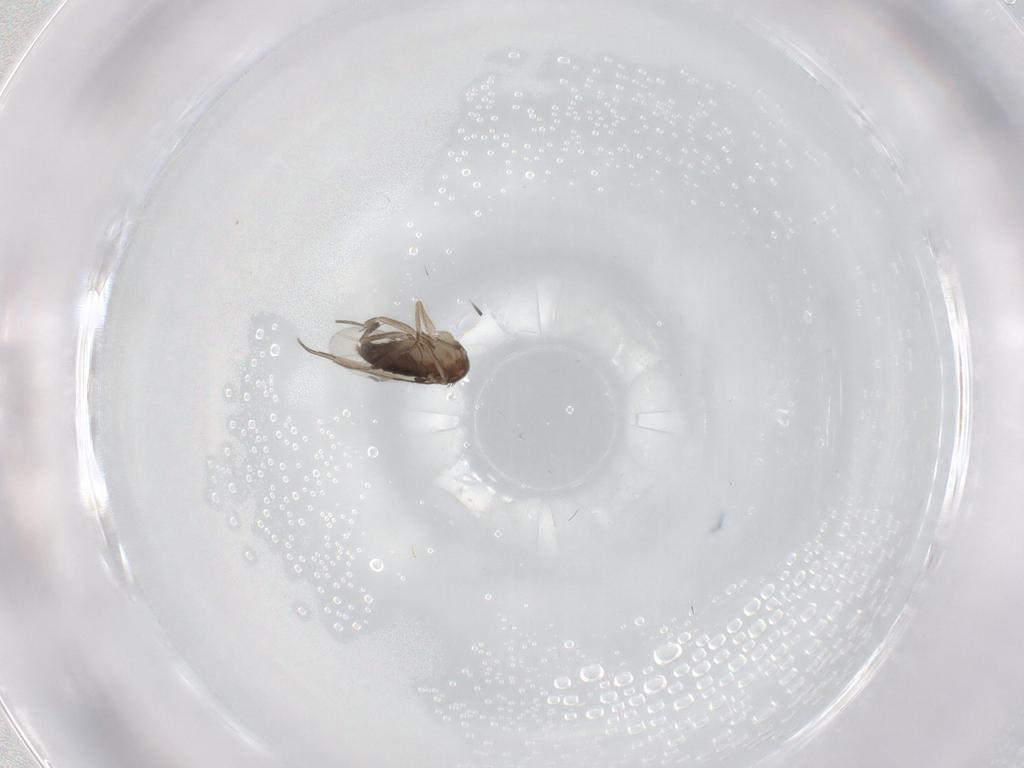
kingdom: Animalia
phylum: Arthropoda
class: Insecta
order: Diptera
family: Phoridae
